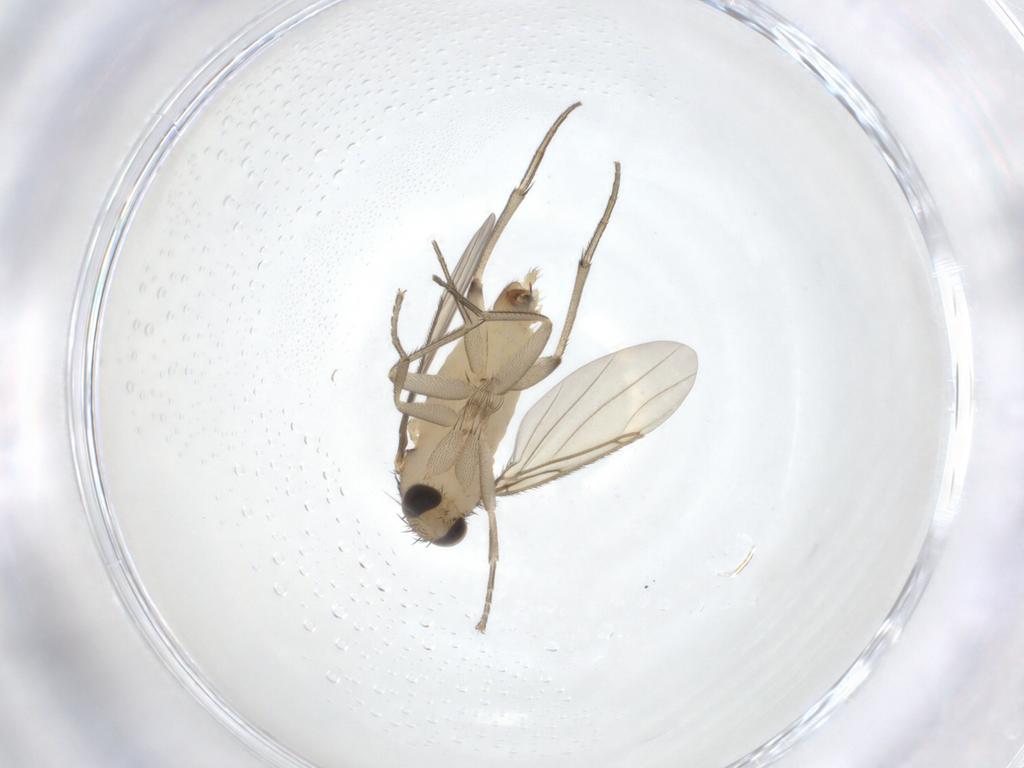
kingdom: Animalia
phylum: Arthropoda
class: Insecta
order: Diptera
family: Phoridae
